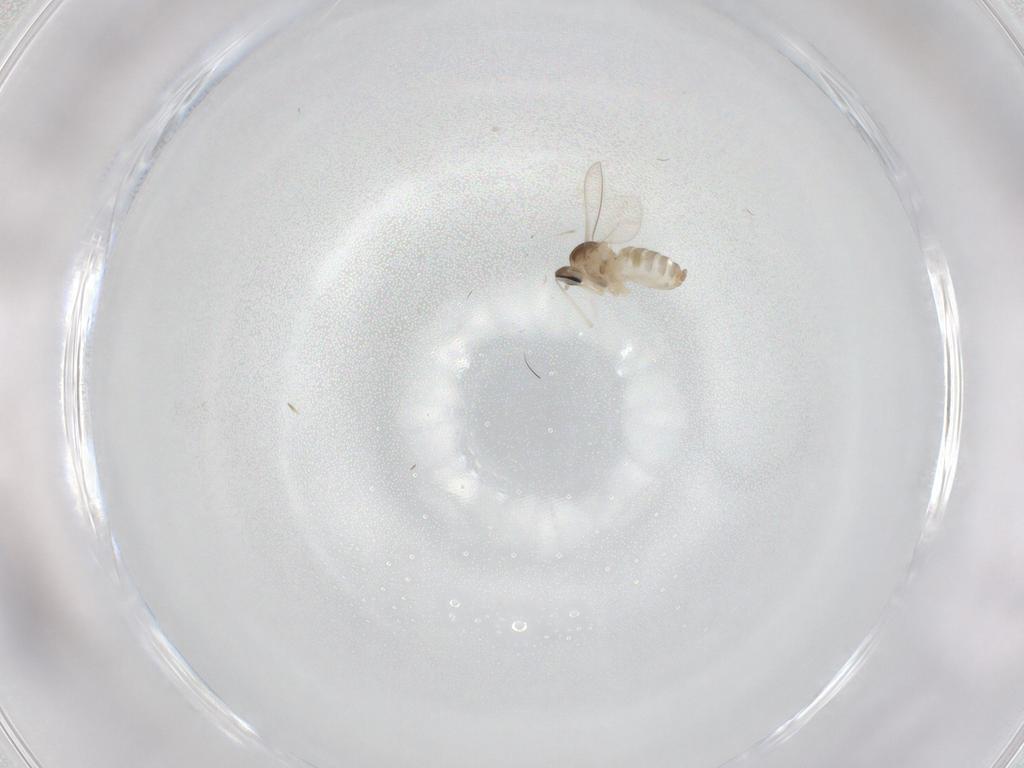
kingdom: Animalia
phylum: Arthropoda
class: Insecta
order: Diptera
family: Cecidomyiidae
